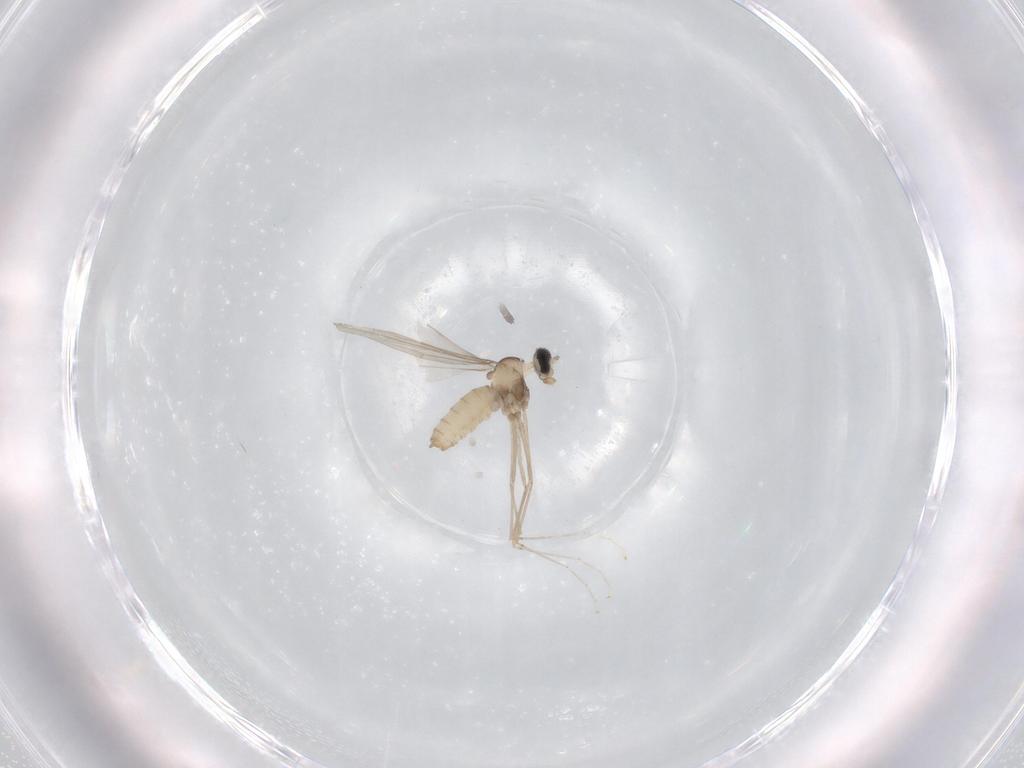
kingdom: Animalia
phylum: Arthropoda
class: Insecta
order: Diptera
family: Cecidomyiidae
